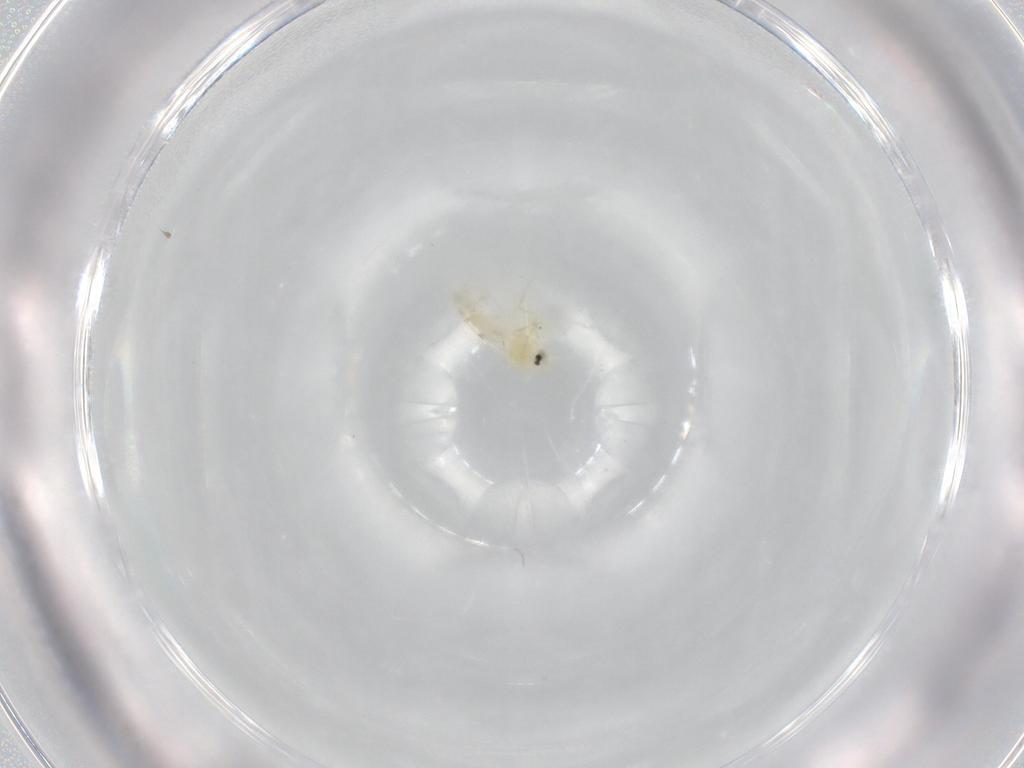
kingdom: Animalia
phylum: Arthropoda
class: Insecta
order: Hemiptera
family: Aleyrodidae
